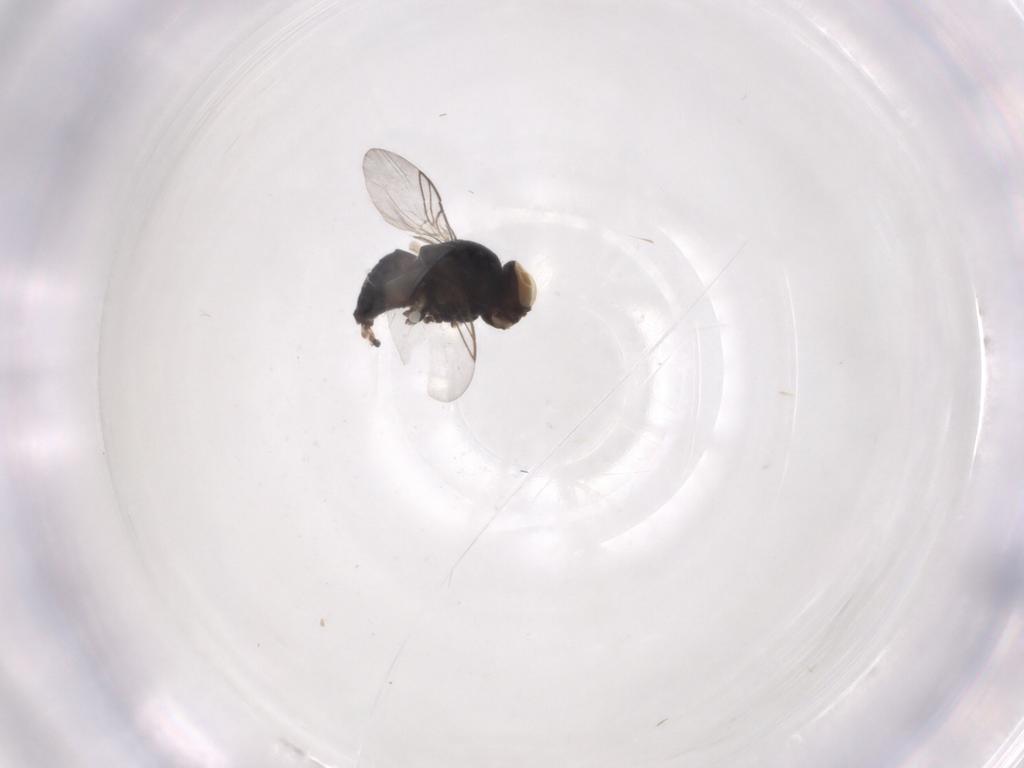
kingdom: Animalia
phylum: Arthropoda
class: Insecta
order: Diptera
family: Agromyzidae
